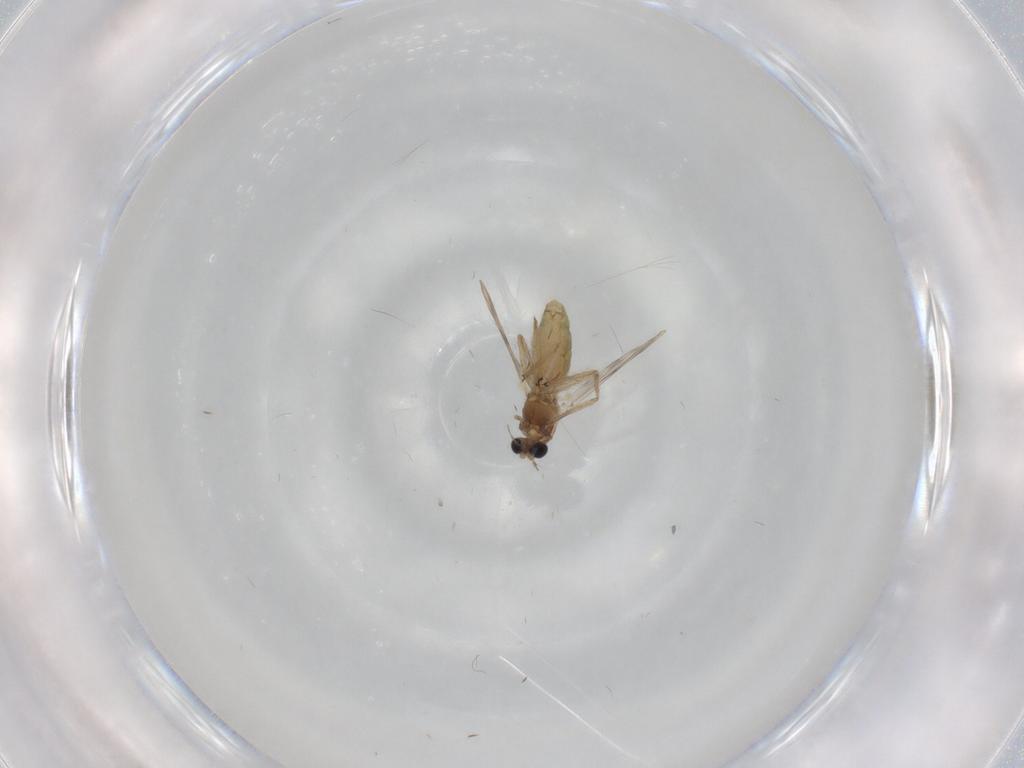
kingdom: Animalia
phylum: Arthropoda
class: Insecta
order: Diptera
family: Chironomidae
